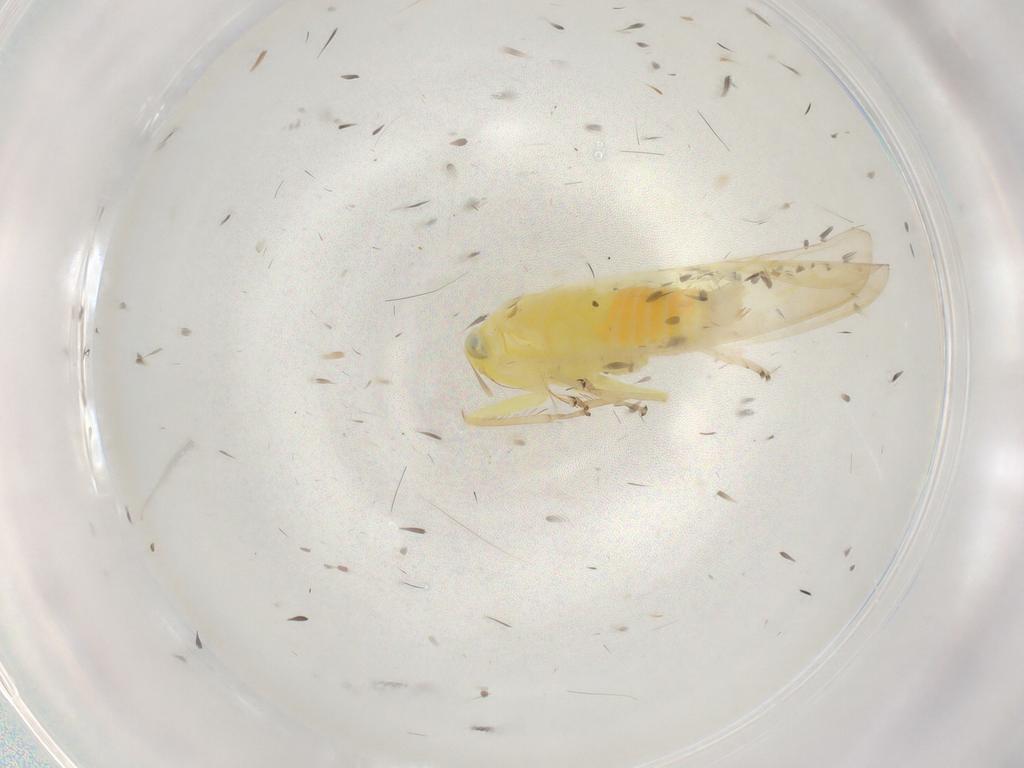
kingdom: Animalia
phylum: Arthropoda
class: Insecta
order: Hemiptera
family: Cicadellidae
